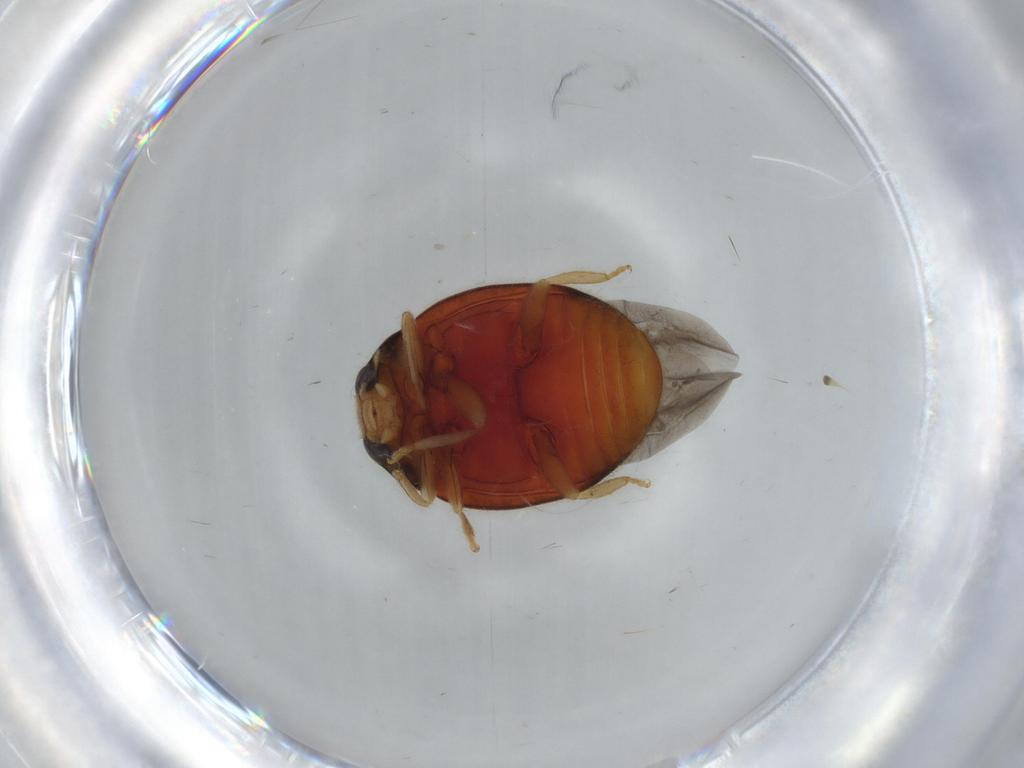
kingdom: Animalia
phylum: Arthropoda
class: Insecta
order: Coleoptera
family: Coccinellidae
